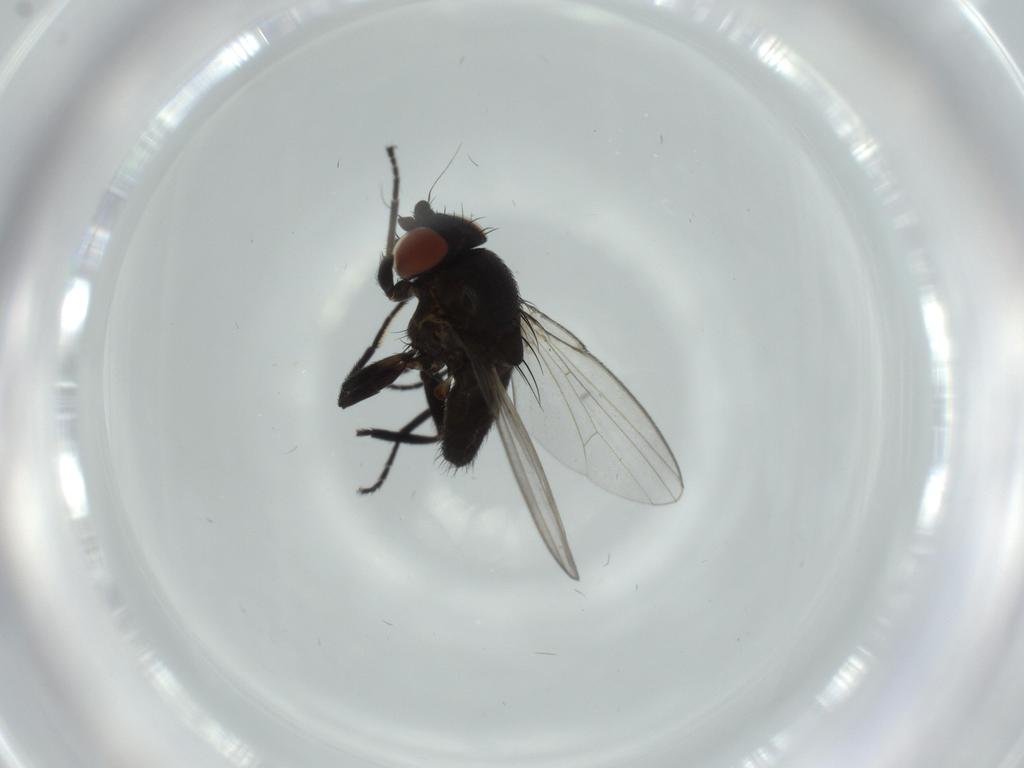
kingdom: Animalia
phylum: Arthropoda
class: Insecta
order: Diptera
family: Milichiidae
